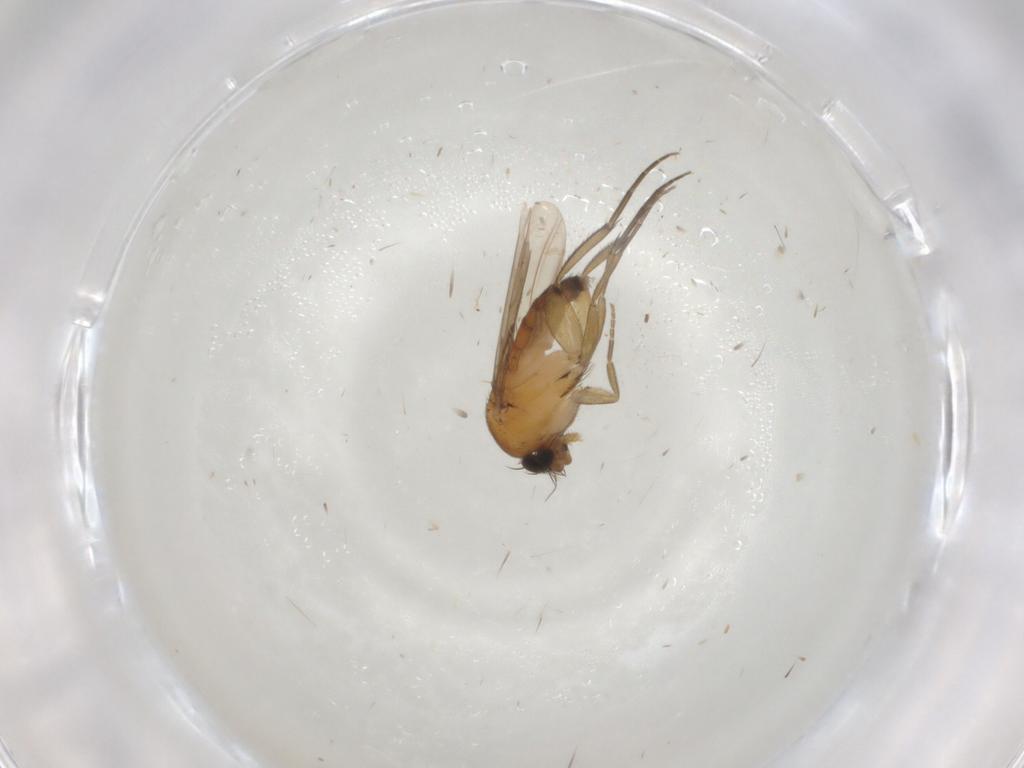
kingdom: Animalia
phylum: Arthropoda
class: Insecta
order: Diptera
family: Phoridae
